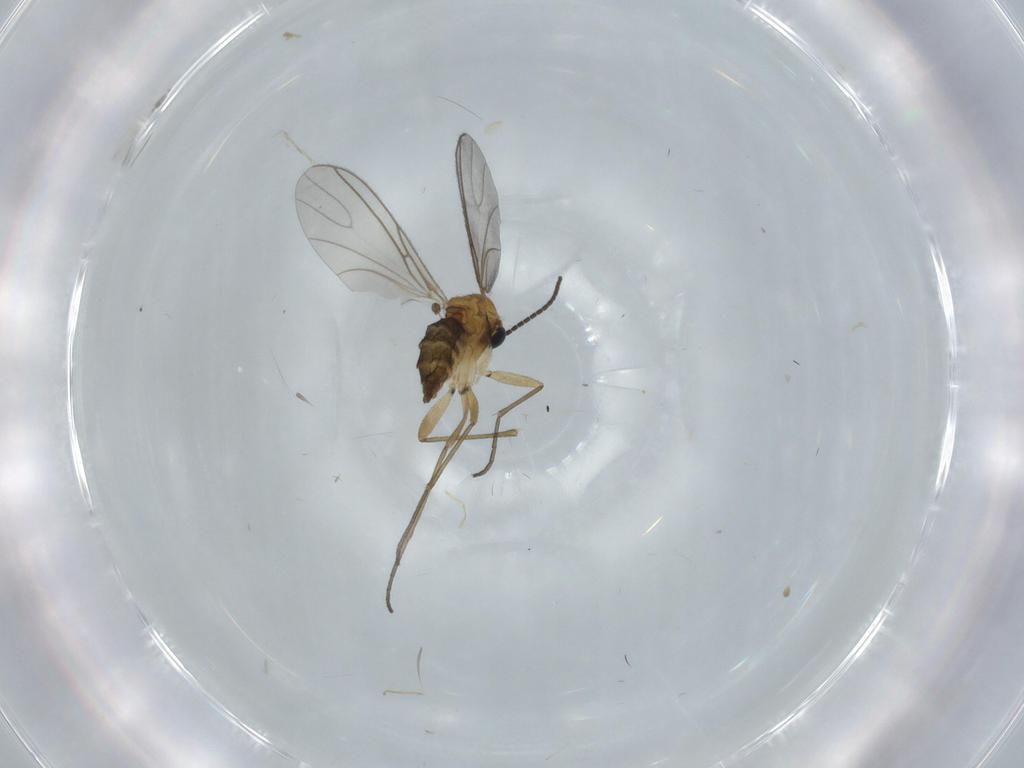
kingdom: Animalia
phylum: Arthropoda
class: Insecta
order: Diptera
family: Sciaridae
